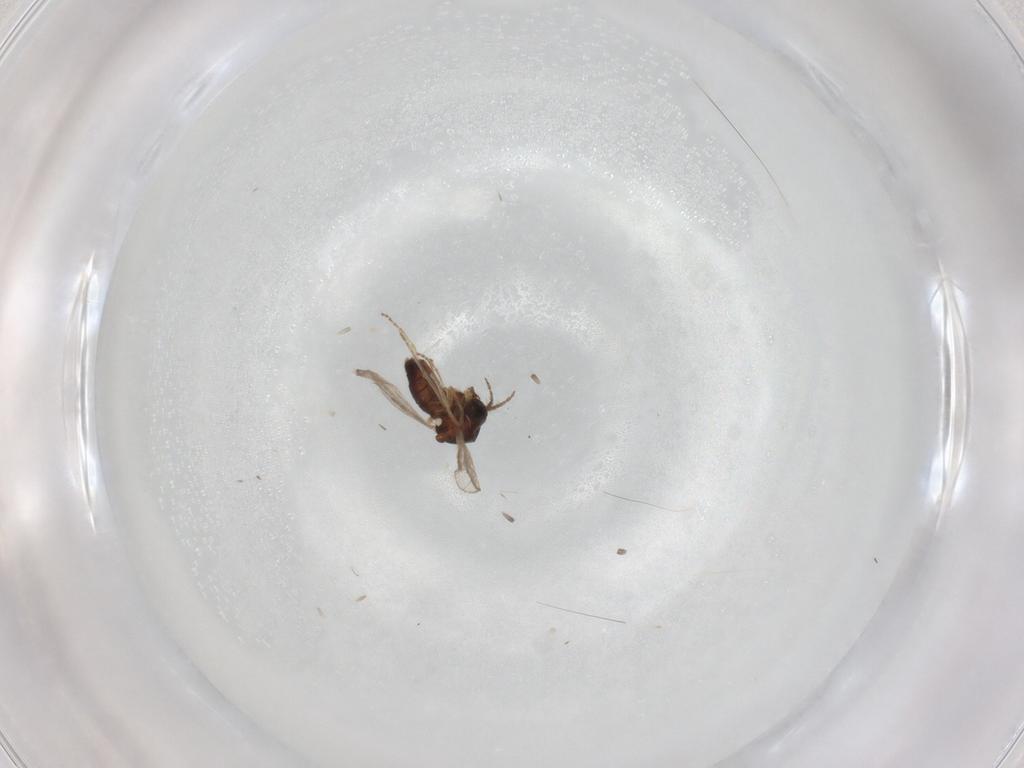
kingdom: Animalia
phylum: Arthropoda
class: Insecta
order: Diptera
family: Ceratopogonidae
